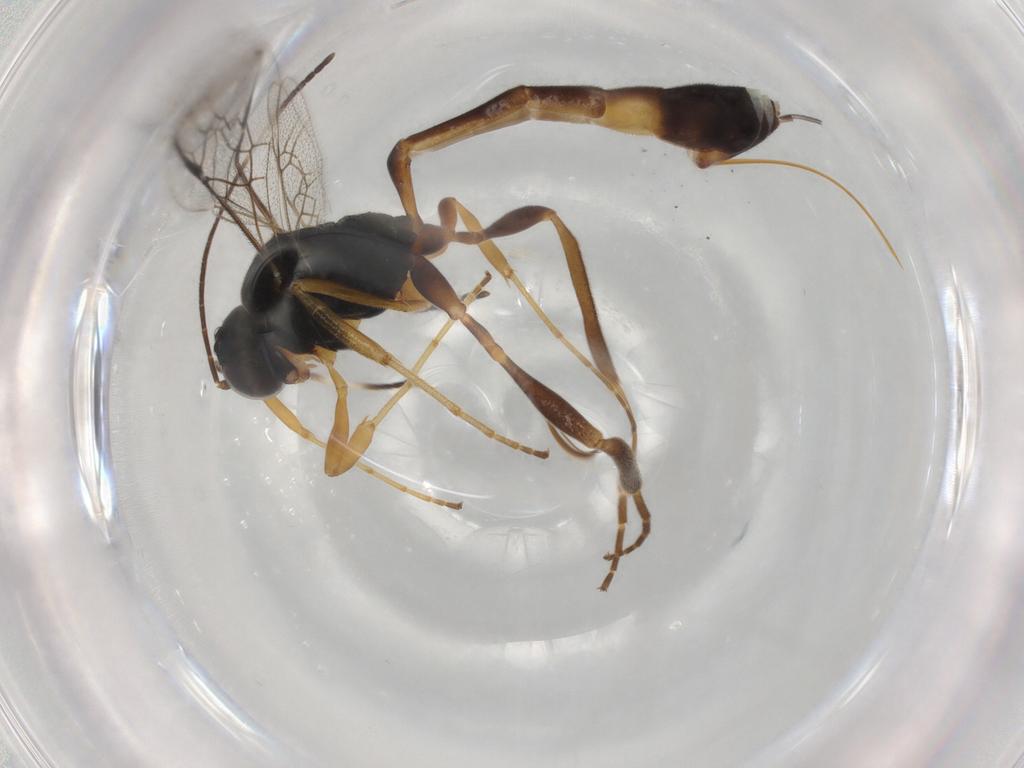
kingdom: Animalia
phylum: Arthropoda
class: Insecta
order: Hymenoptera
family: Ichneumonidae
